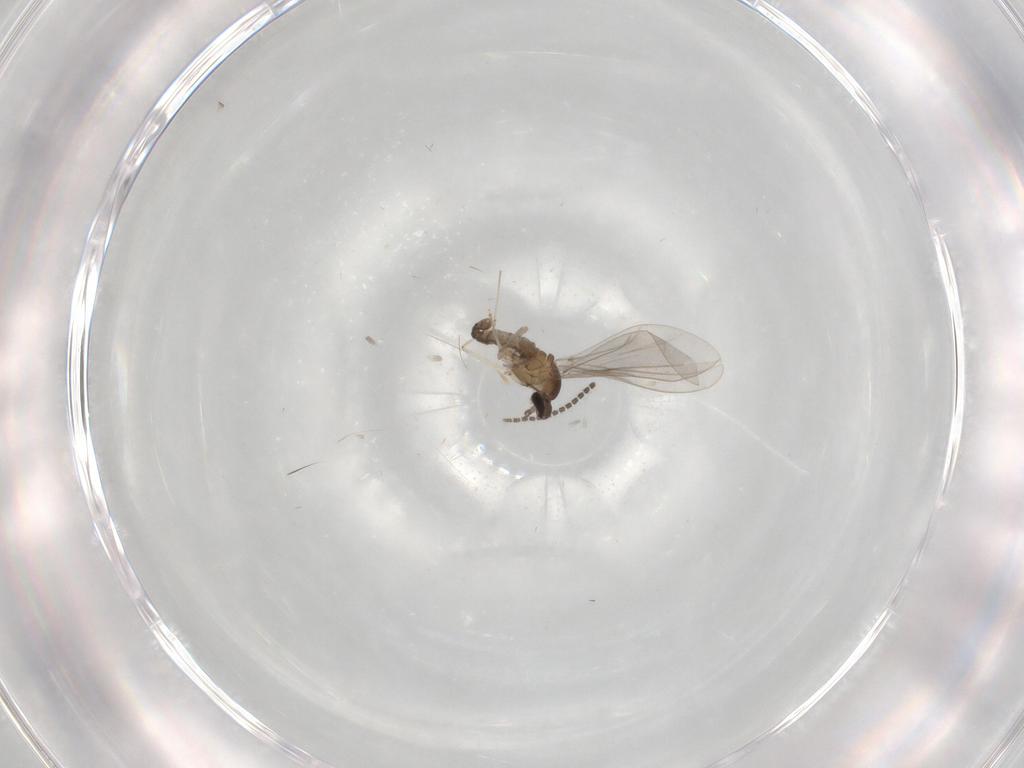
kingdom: Animalia
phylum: Arthropoda
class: Insecta
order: Diptera
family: Sciaridae
